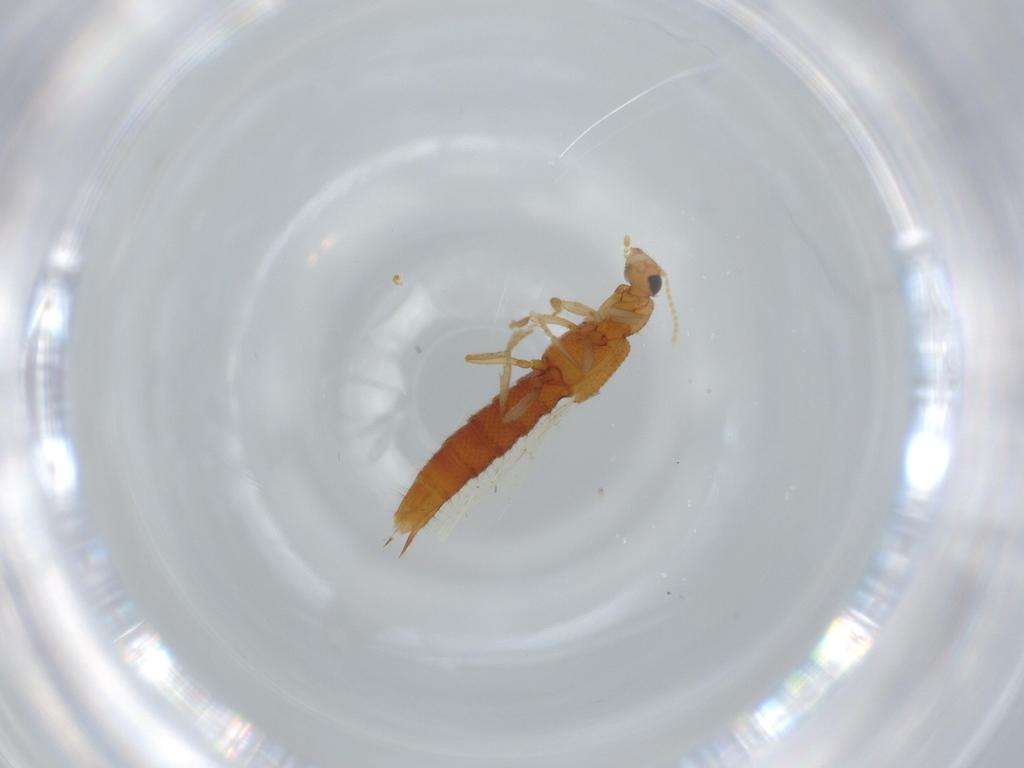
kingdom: Animalia
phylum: Arthropoda
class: Insecta
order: Coleoptera
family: Staphylinidae
